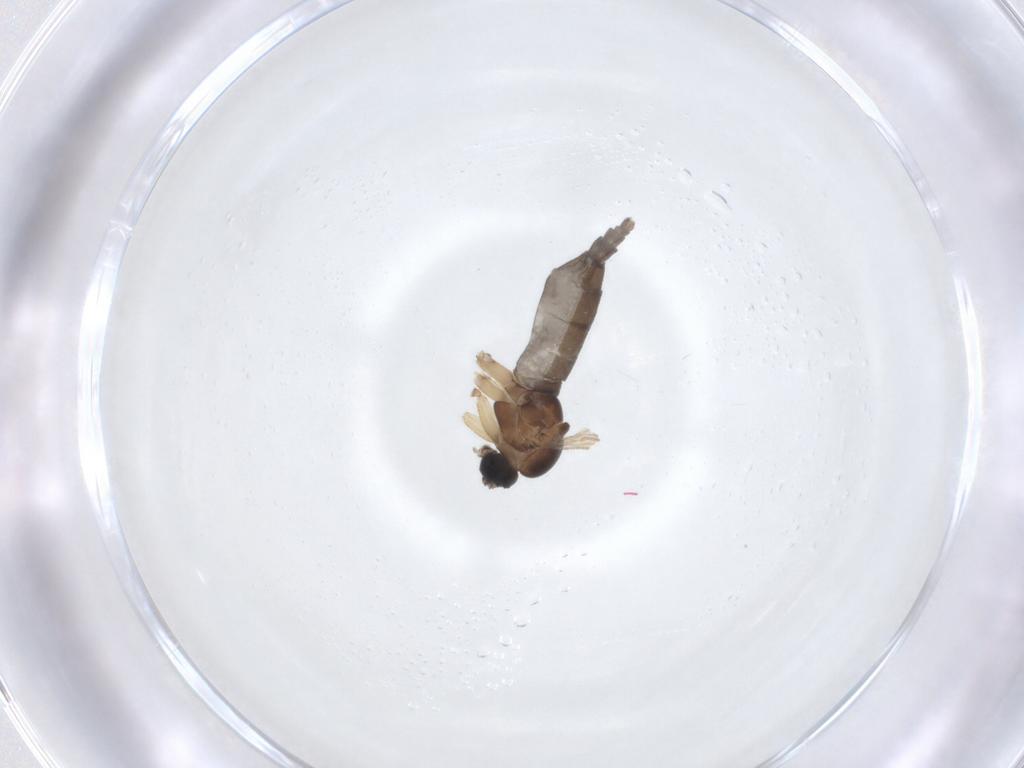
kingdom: Animalia
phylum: Arthropoda
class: Insecta
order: Diptera
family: Sciaridae
